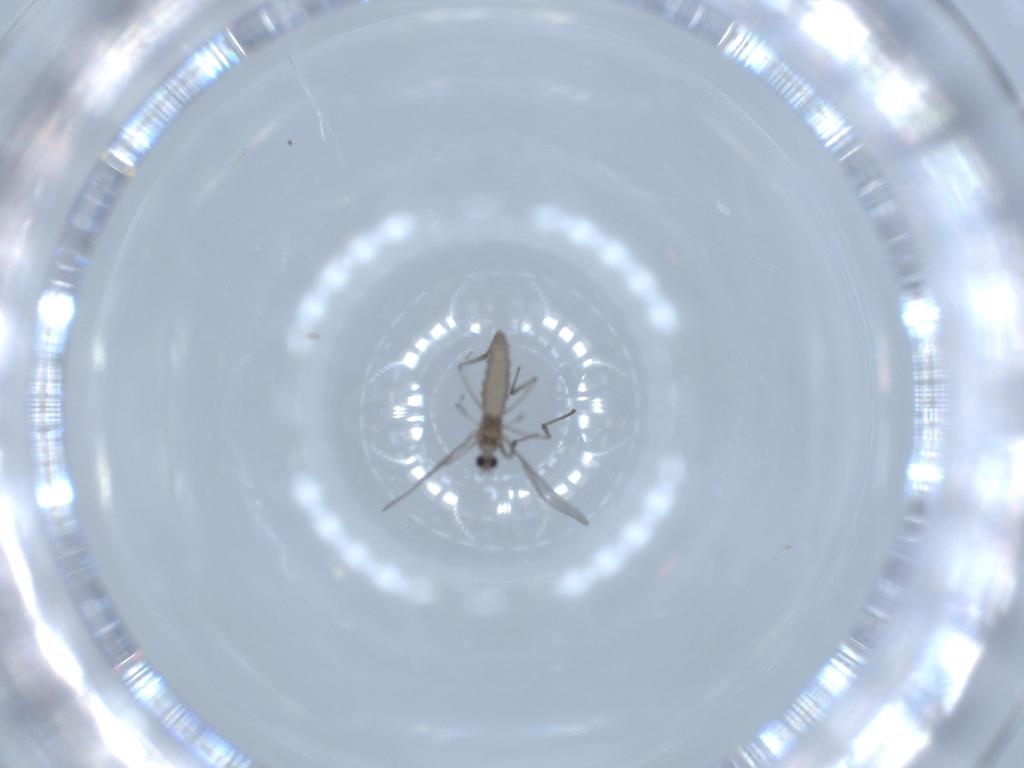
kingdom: Animalia
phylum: Arthropoda
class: Insecta
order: Diptera
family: Cecidomyiidae
